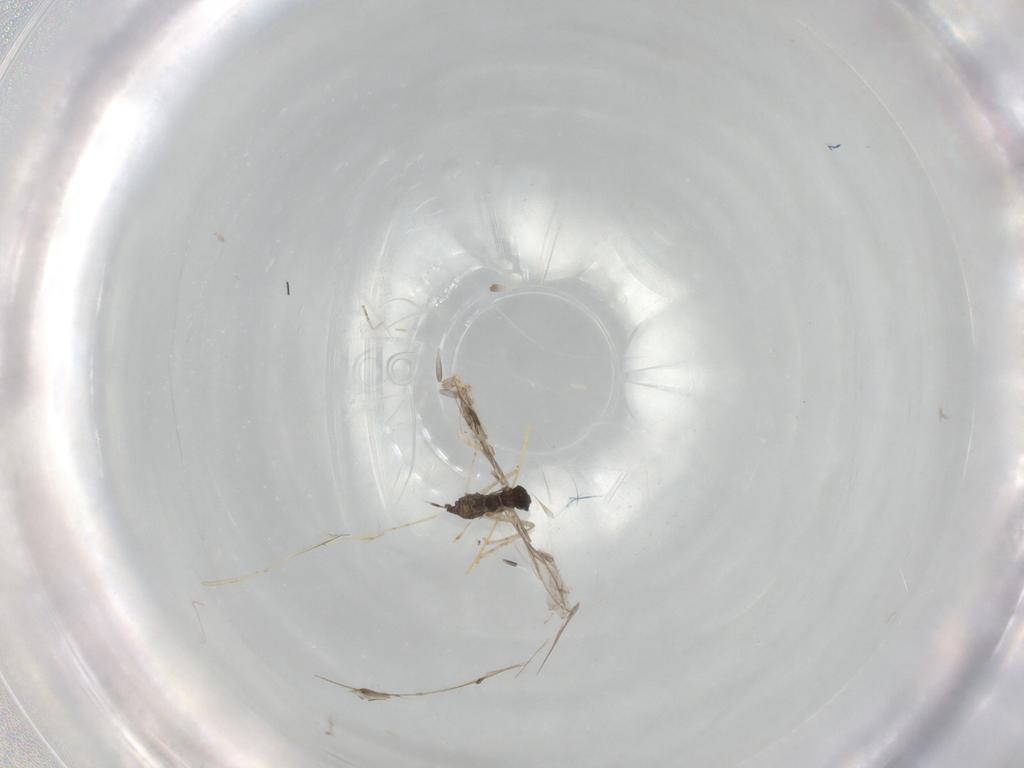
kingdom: Animalia
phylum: Arthropoda
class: Insecta
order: Diptera
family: Cecidomyiidae
